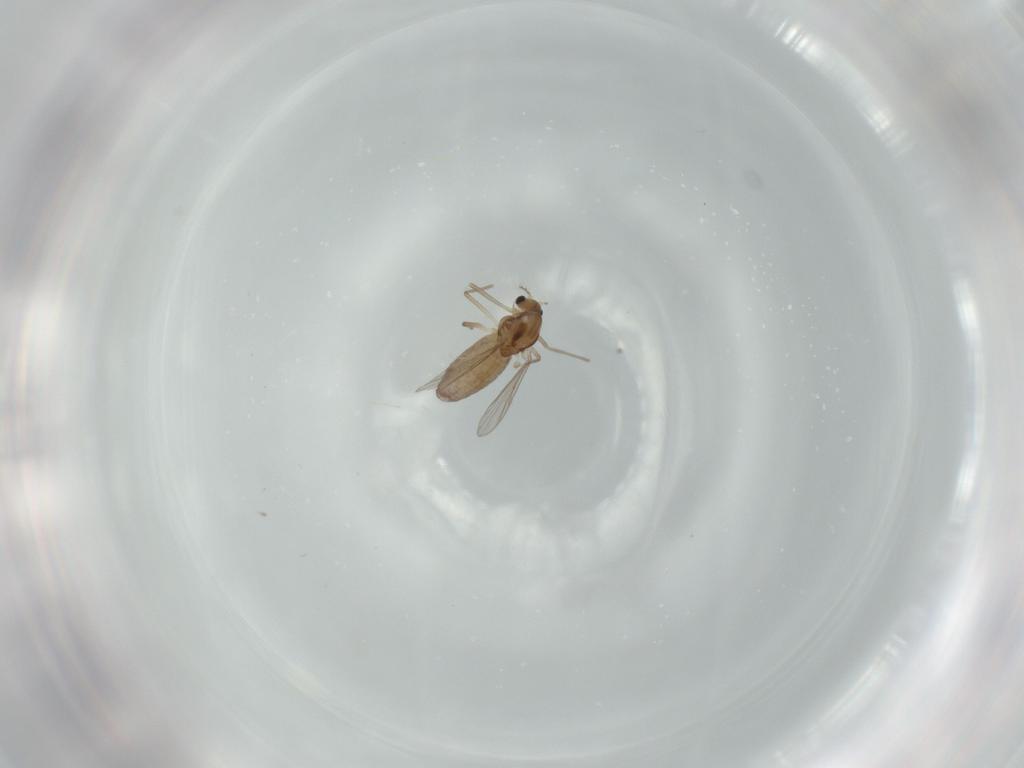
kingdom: Animalia
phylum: Arthropoda
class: Insecta
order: Diptera
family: Chironomidae
